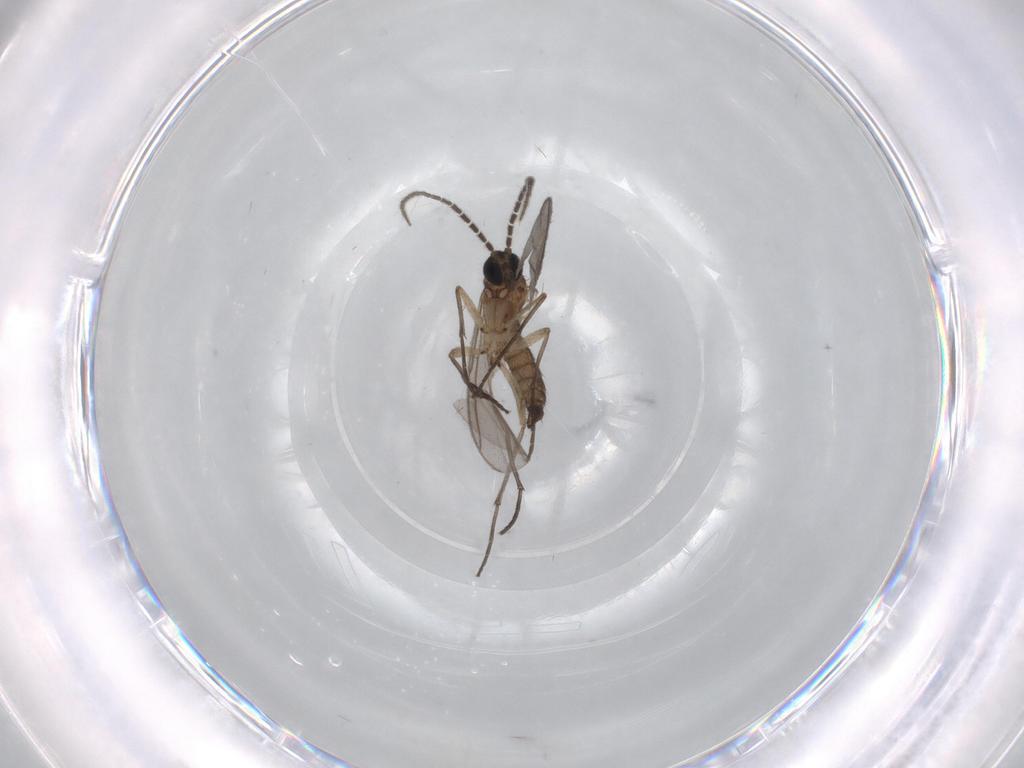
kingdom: Animalia
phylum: Arthropoda
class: Insecta
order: Diptera
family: Sciaridae
